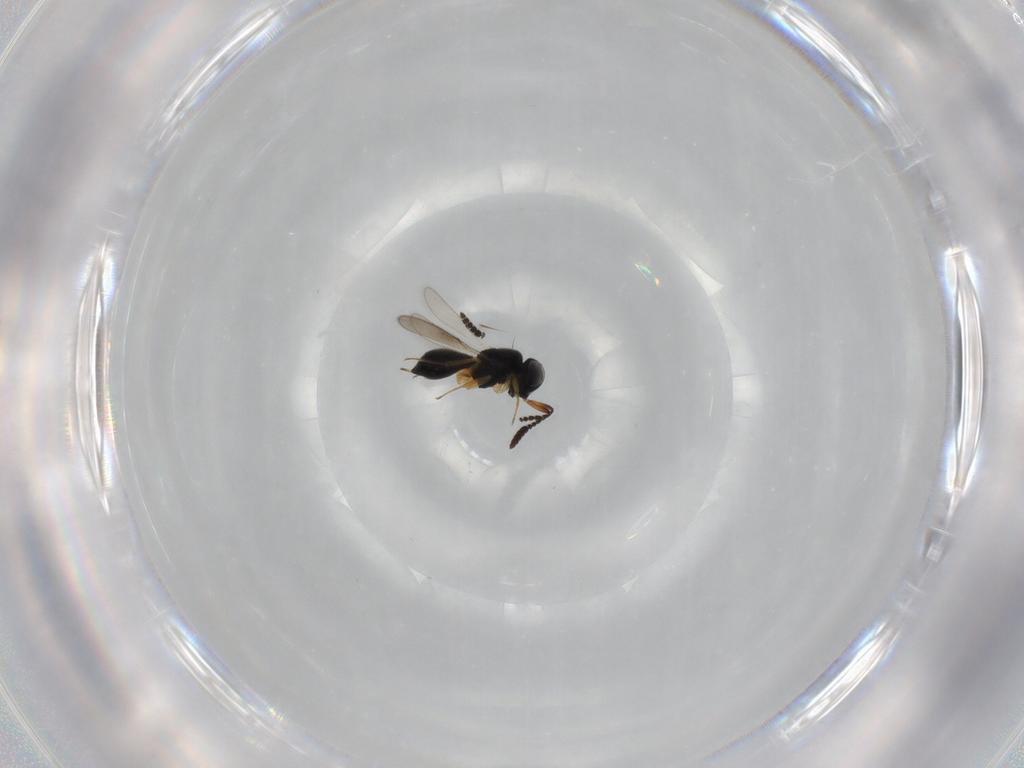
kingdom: Animalia
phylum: Arthropoda
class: Insecta
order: Hymenoptera
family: Scelionidae
